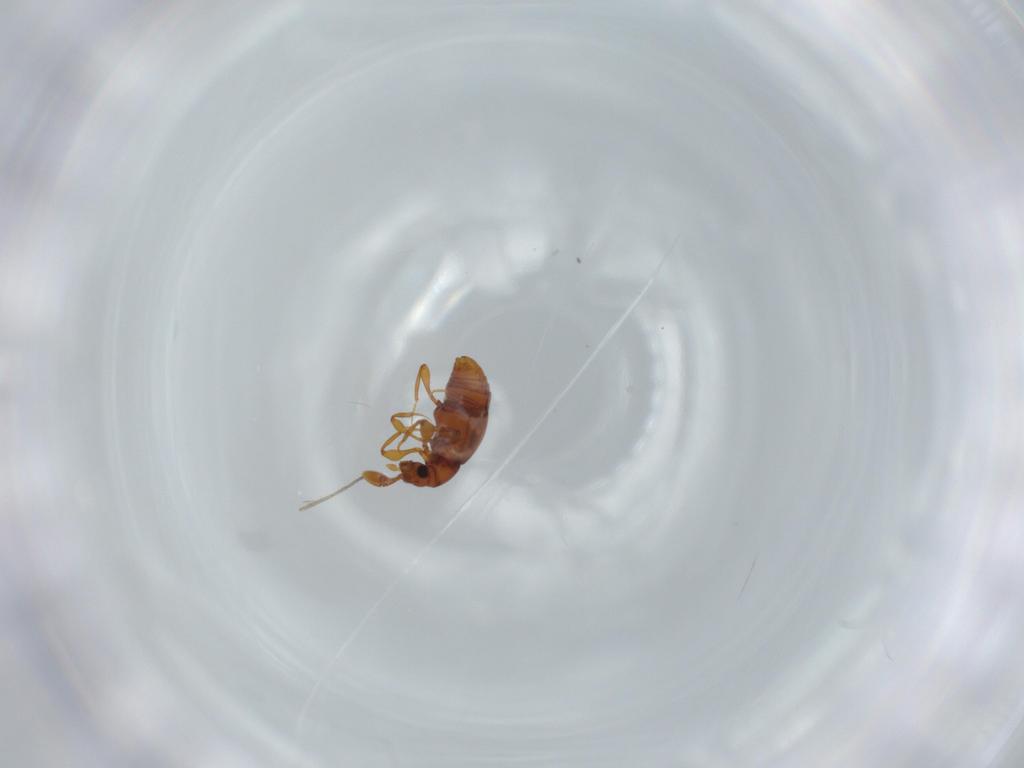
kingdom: Animalia
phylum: Arthropoda
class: Insecta
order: Coleoptera
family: Staphylinidae
